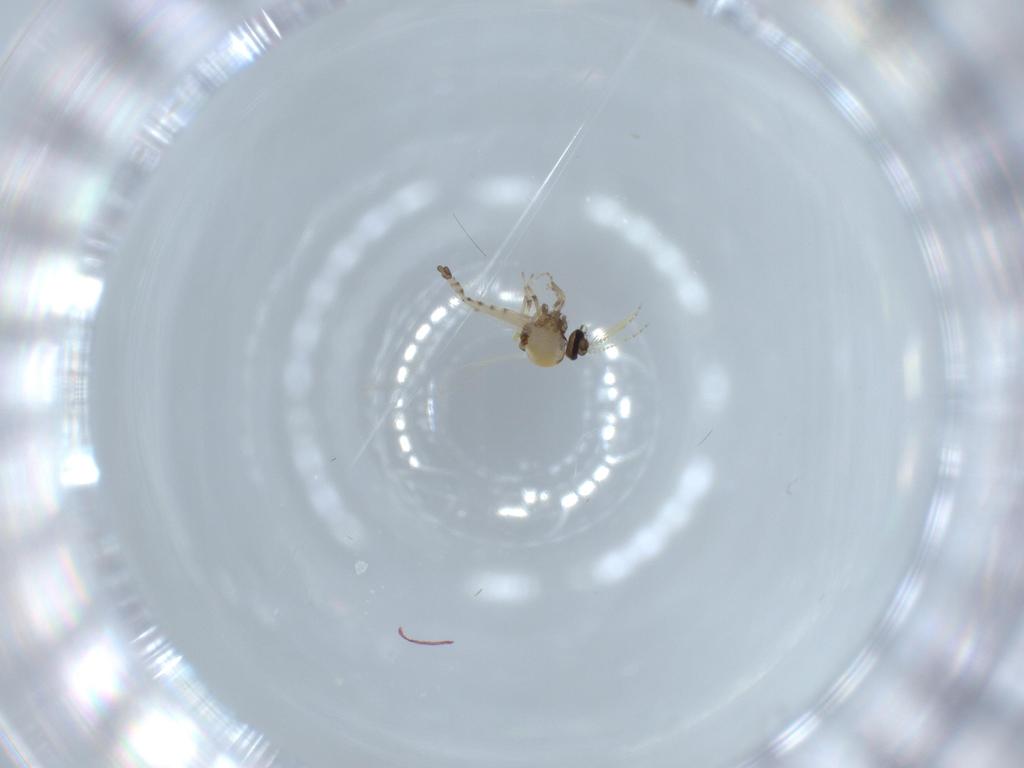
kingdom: Animalia
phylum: Arthropoda
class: Insecta
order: Diptera
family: Ceratopogonidae
